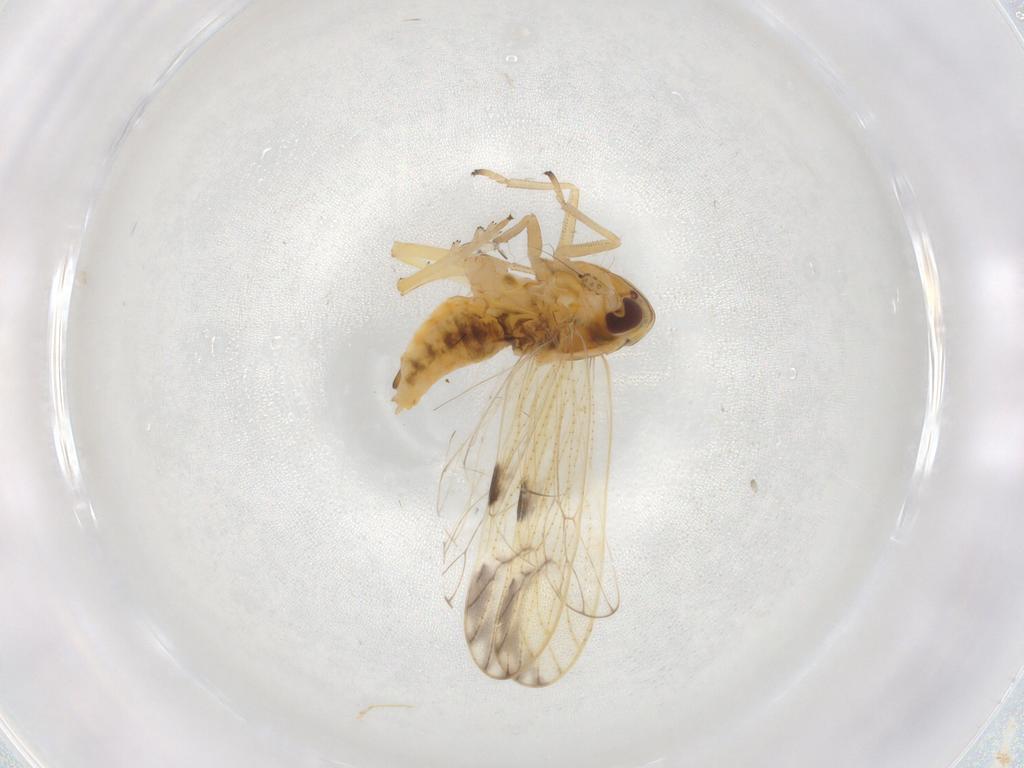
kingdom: Animalia
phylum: Arthropoda
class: Insecta
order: Hemiptera
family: Delphacidae
